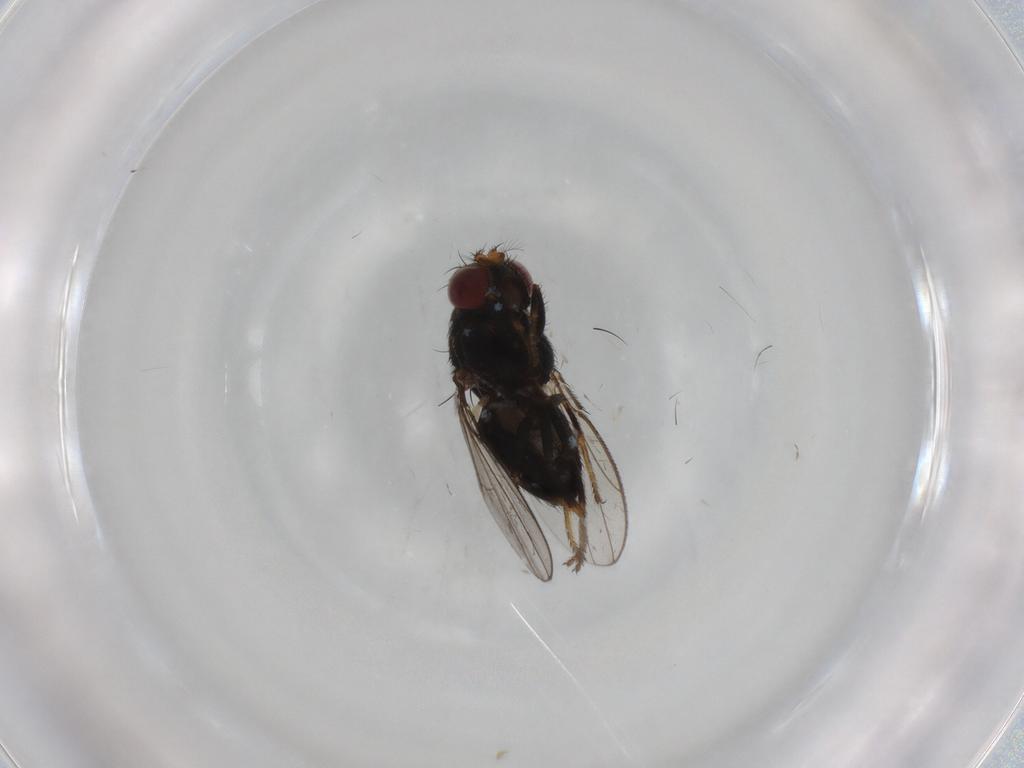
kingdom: Animalia
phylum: Arthropoda
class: Insecta
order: Diptera
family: Ephydridae
